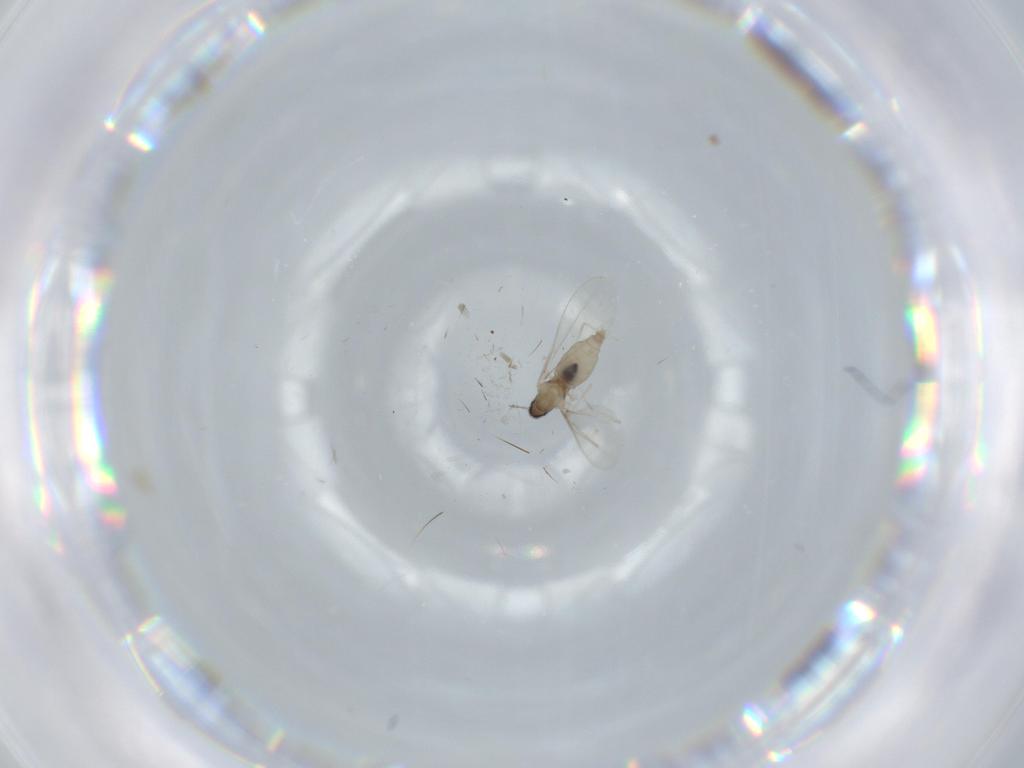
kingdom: Animalia
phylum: Arthropoda
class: Insecta
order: Diptera
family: Cecidomyiidae
